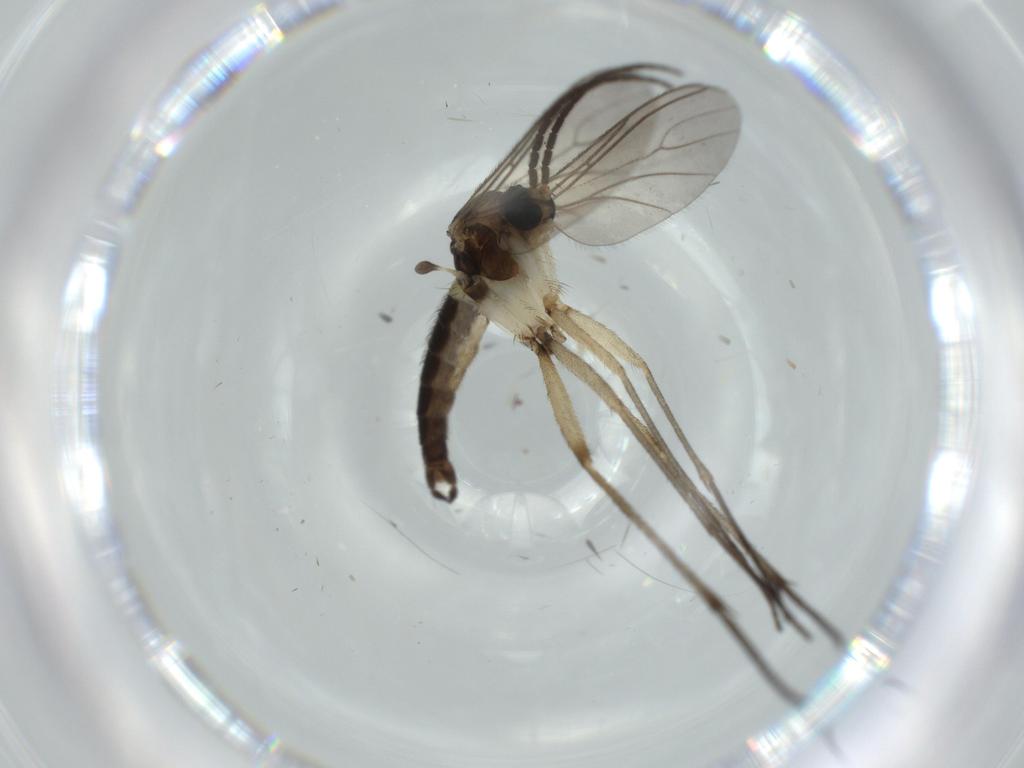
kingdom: Animalia
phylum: Arthropoda
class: Insecta
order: Diptera
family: Sciaridae
